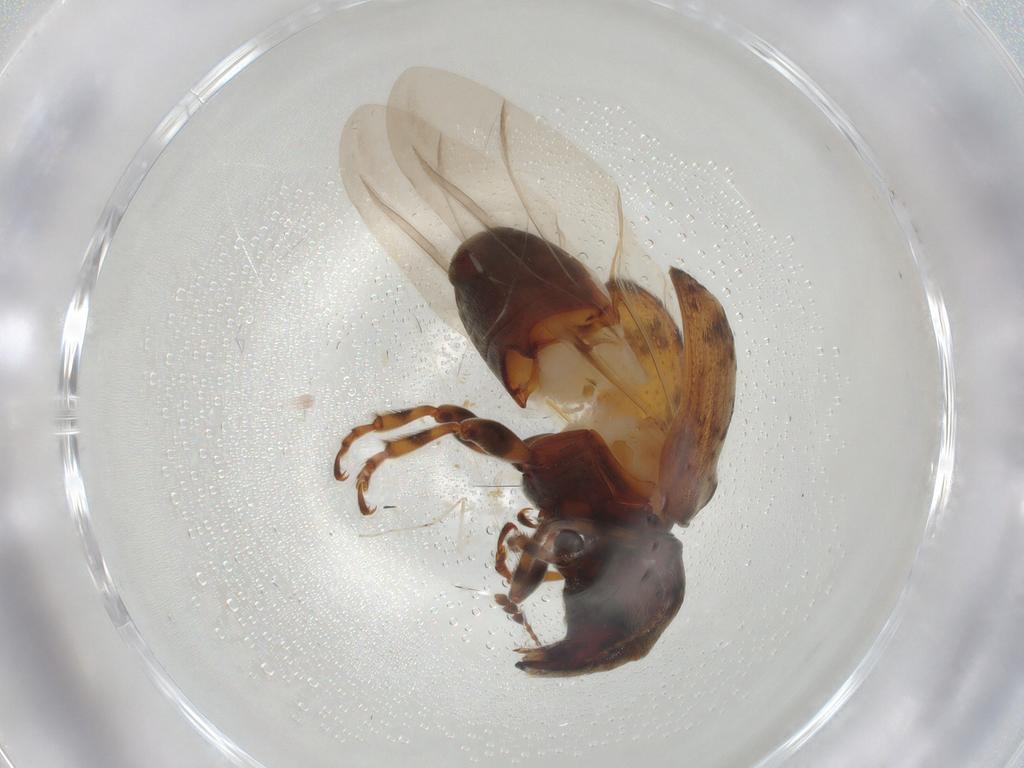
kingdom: Animalia
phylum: Arthropoda
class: Insecta
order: Coleoptera
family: Anthribidae
